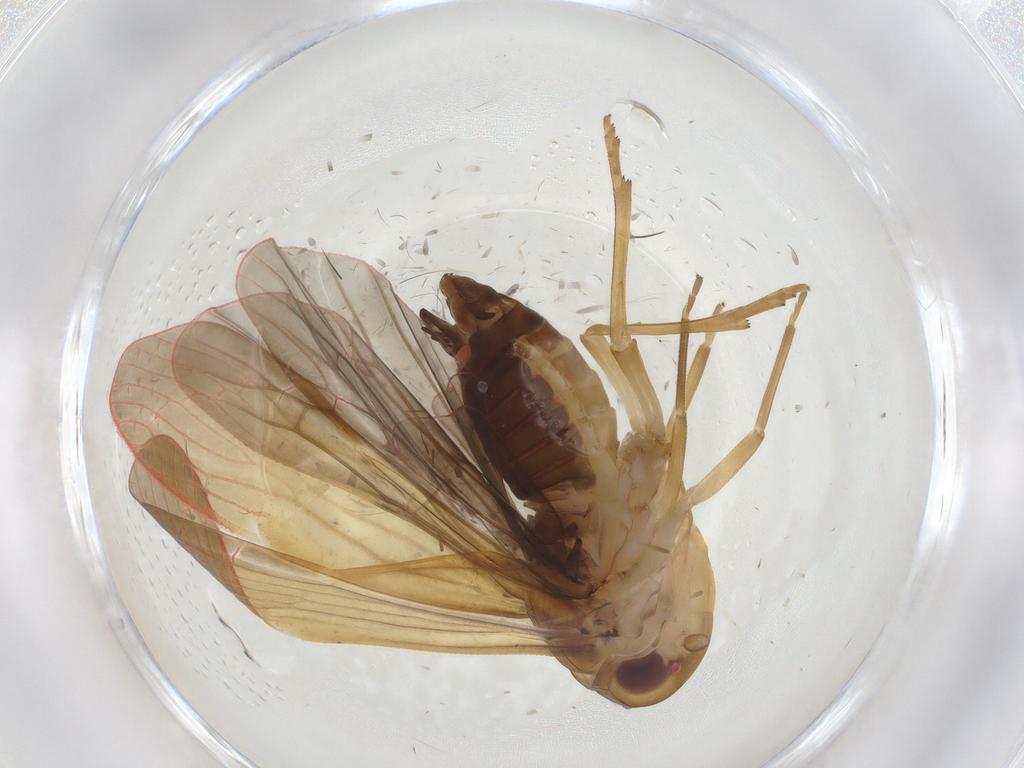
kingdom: Animalia
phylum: Arthropoda
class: Insecta
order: Hemiptera
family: Achilidae
